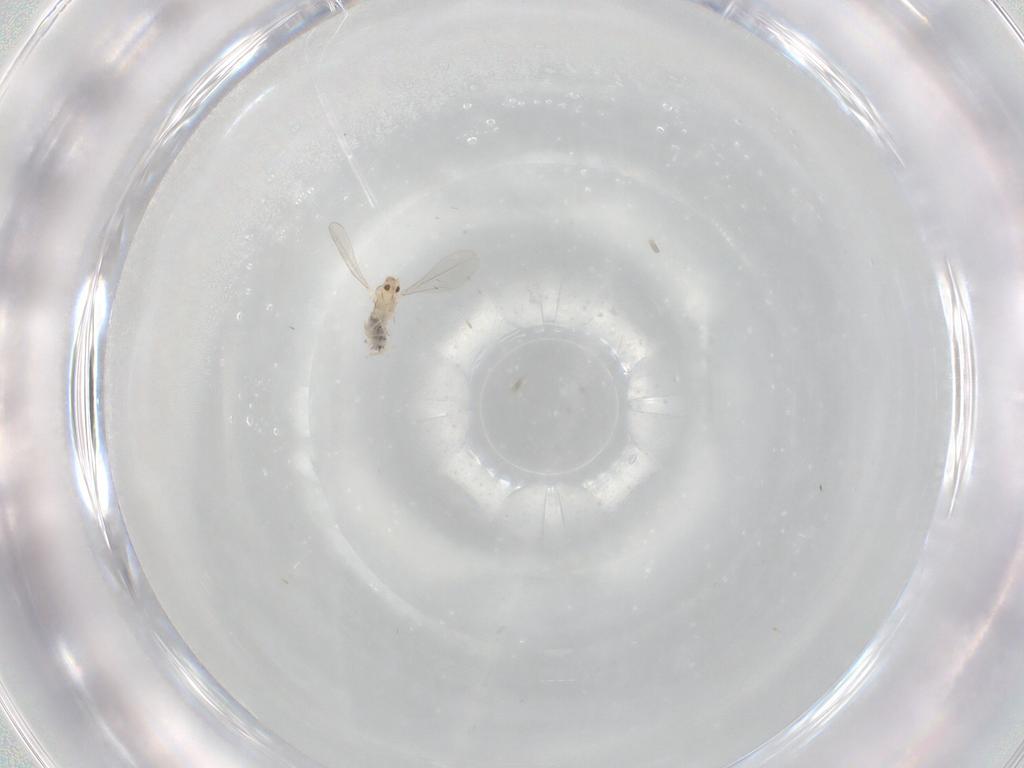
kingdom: Animalia
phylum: Arthropoda
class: Insecta
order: Diptera
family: Cecidomyiidae
